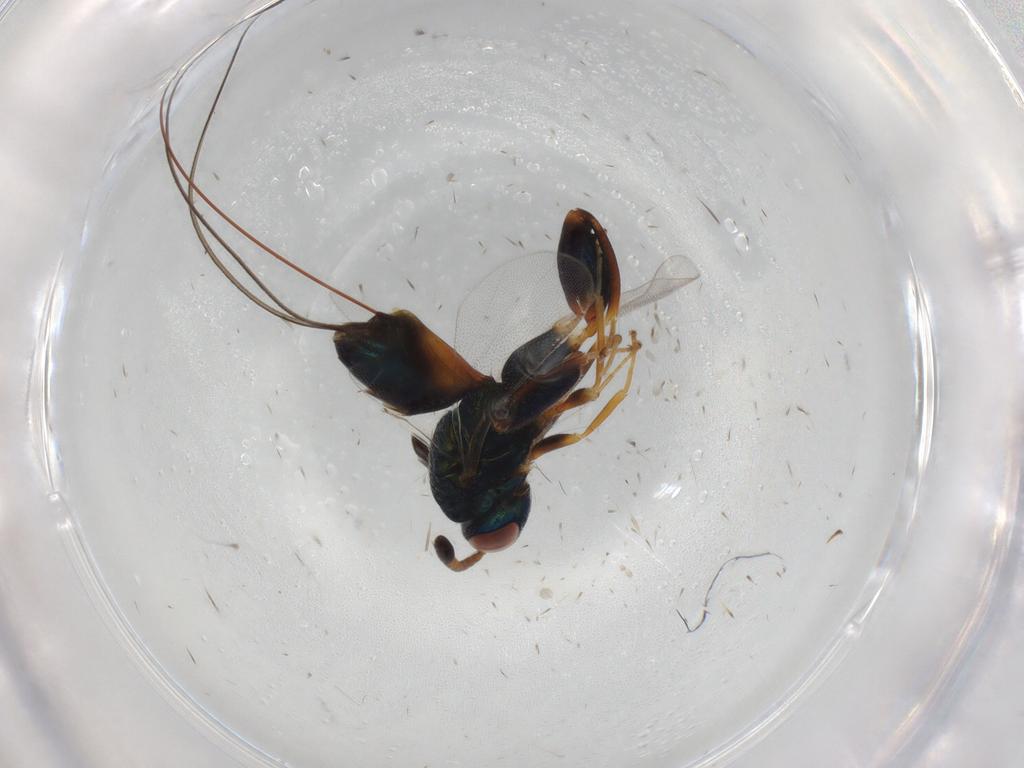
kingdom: Animalia
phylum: Arthropoda
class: Insecta
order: Hymenoptera
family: Torymidae
